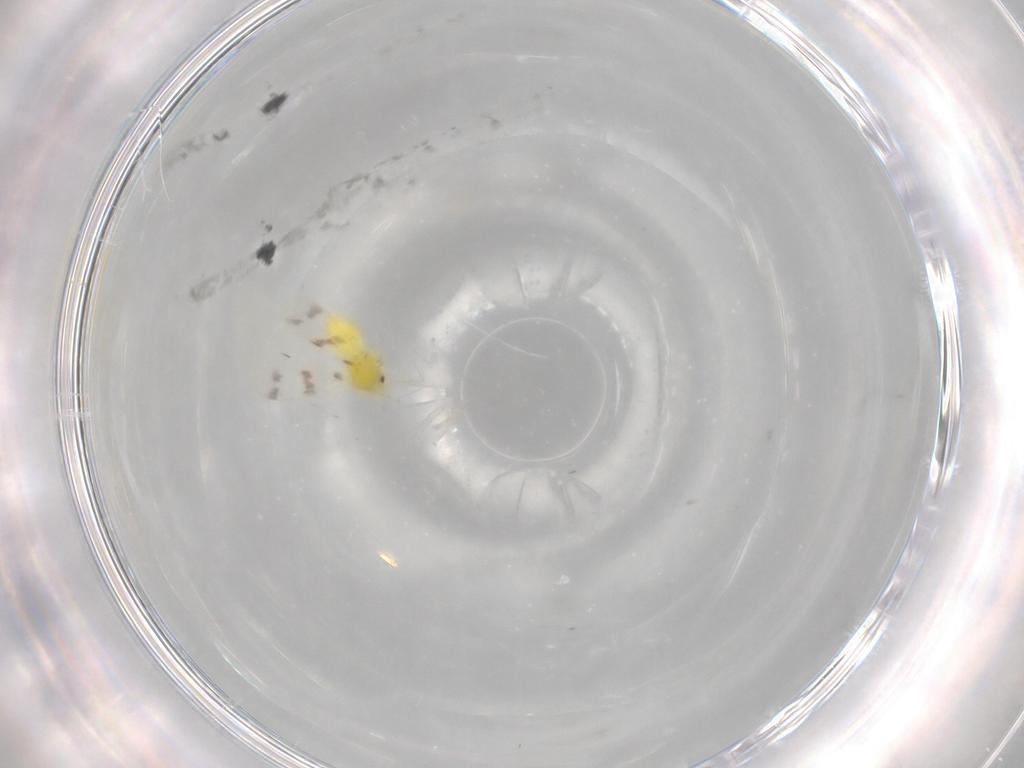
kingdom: Animalia
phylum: Arthropoda
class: Insecta
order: Hemiptera
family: Aleyrodidae
